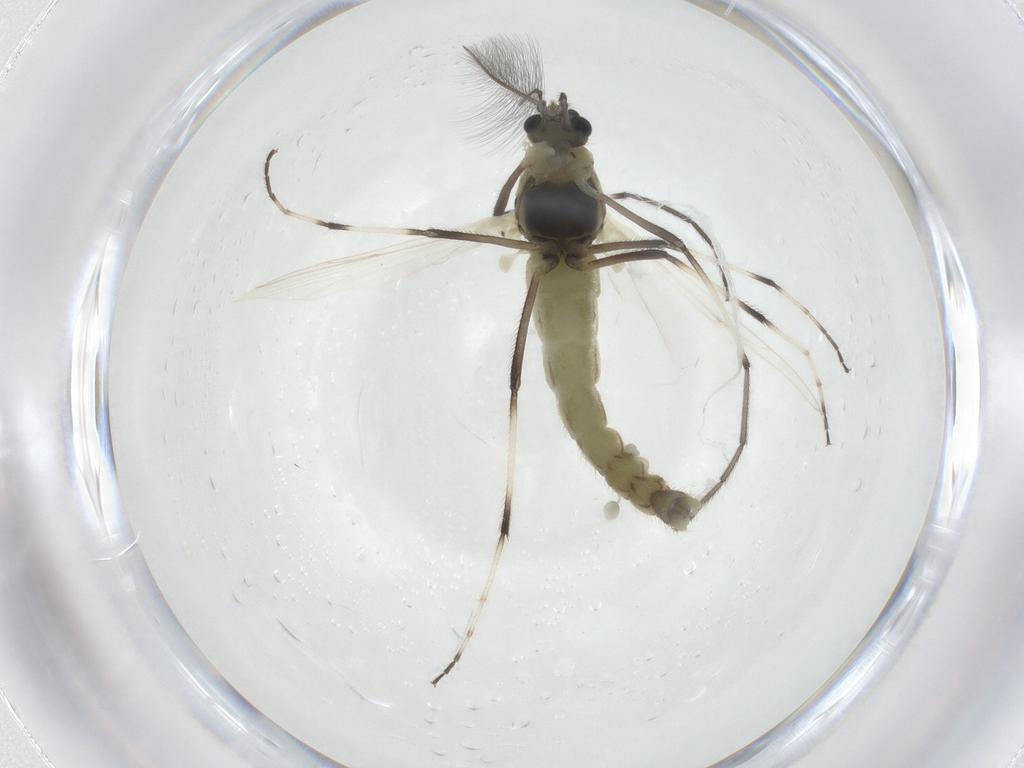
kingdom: Animalia
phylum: Arthropoda
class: Insecta
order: Diptera
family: Chironomidae
